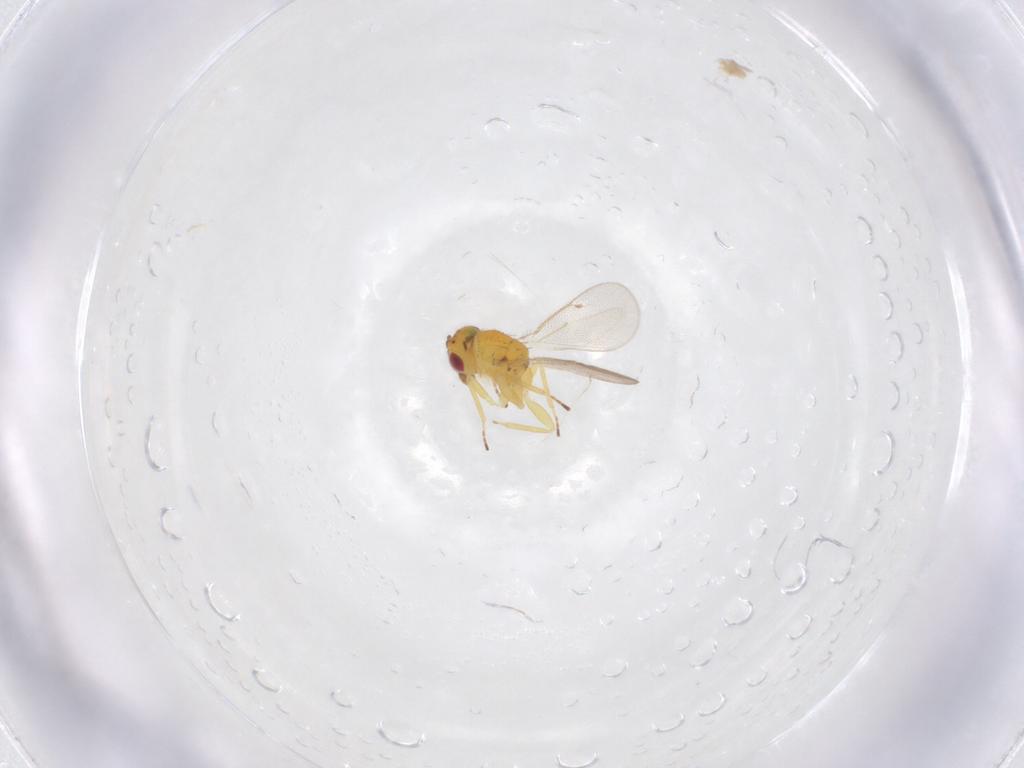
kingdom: Animalia
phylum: Arthropoda
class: Insecta
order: Hymenoptera
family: Eulophidae
